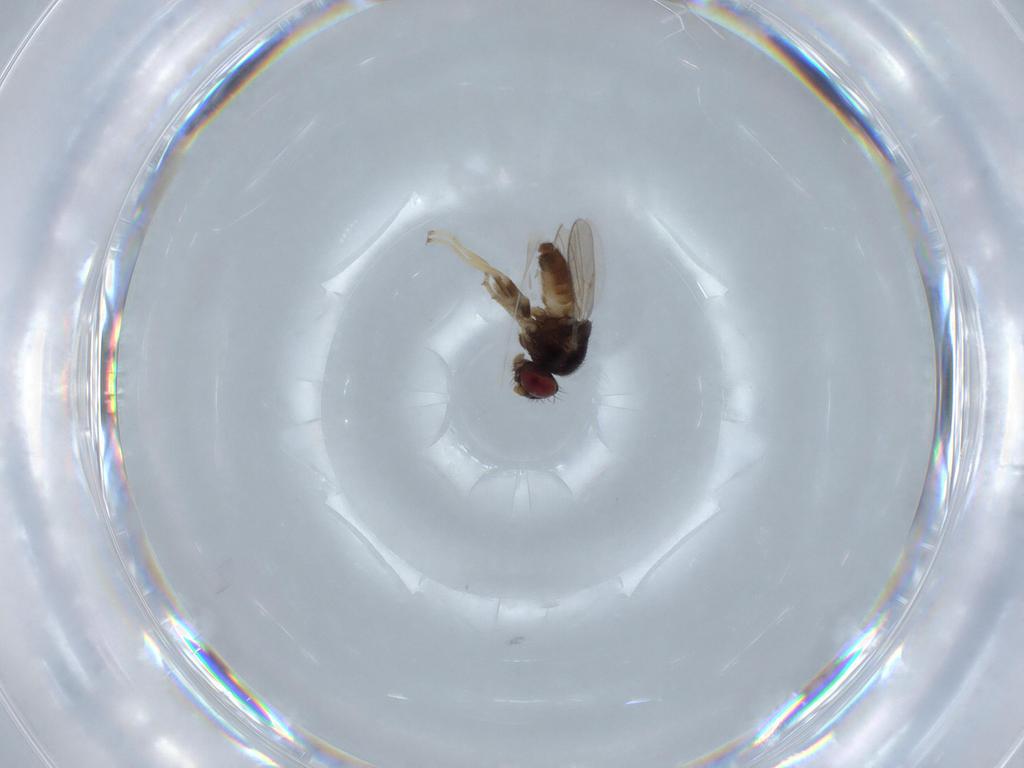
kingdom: Animalia
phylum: Arthropoda
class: Insecta
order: Diptera
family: Chloropidae
